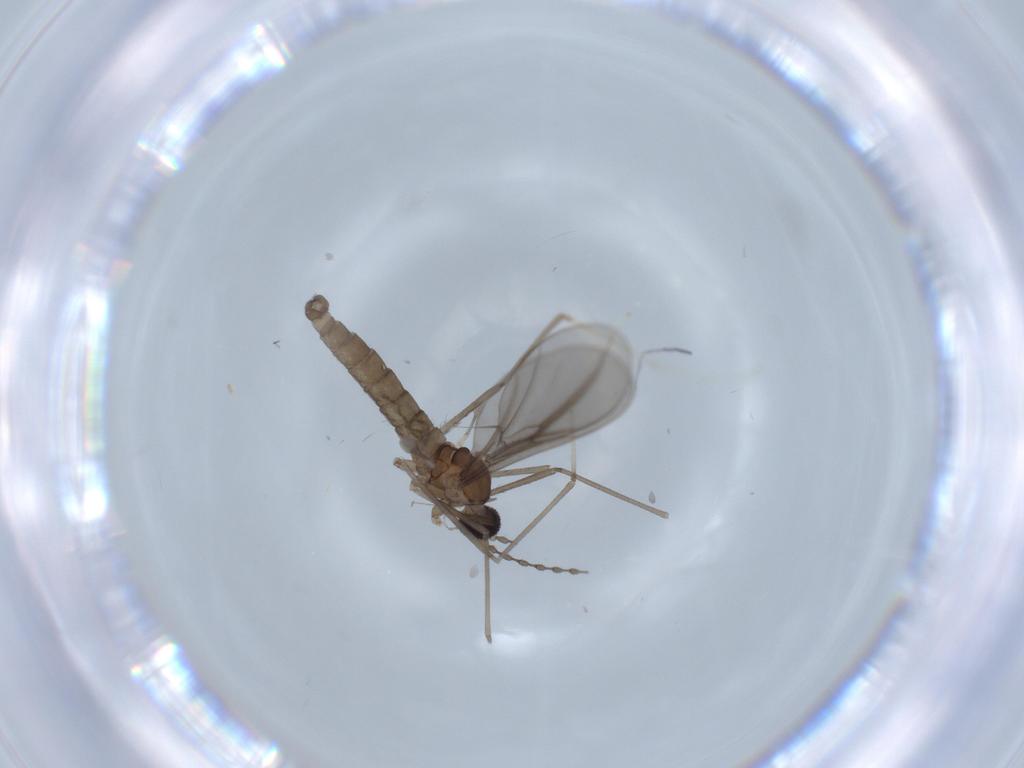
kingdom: Animalia
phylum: Arthropoda
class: Insecta
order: Diptera
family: Cecidomyiidae
